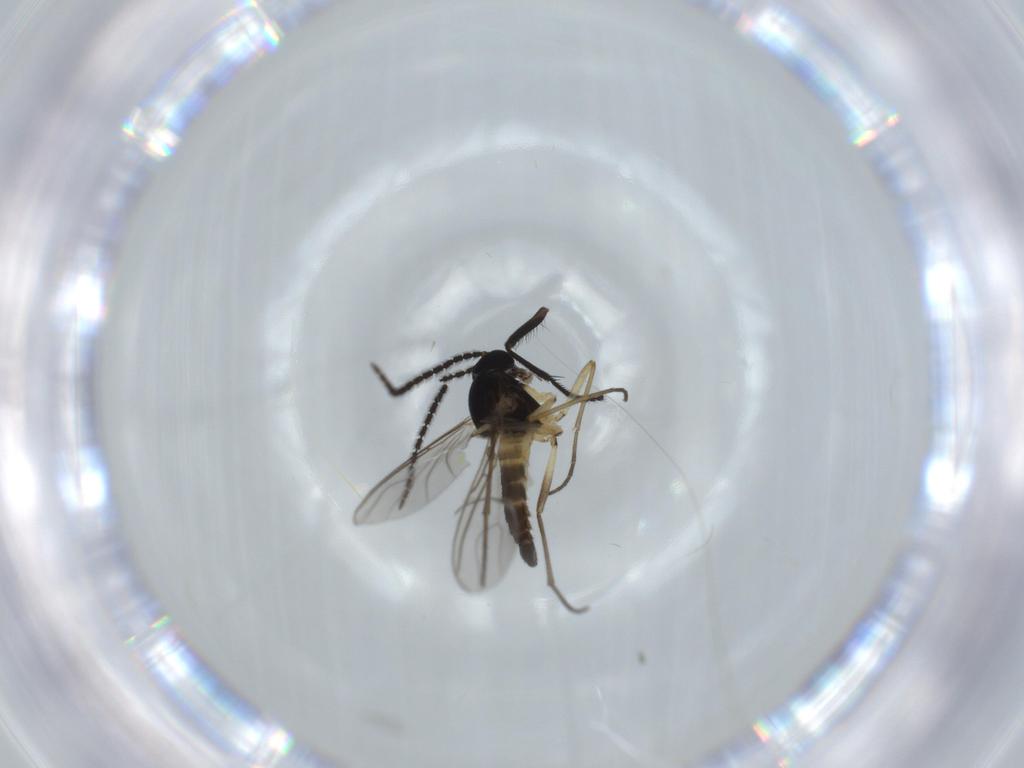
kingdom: Animalia
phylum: Arthropoda
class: Insecta
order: Diptera
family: Sciaridae
